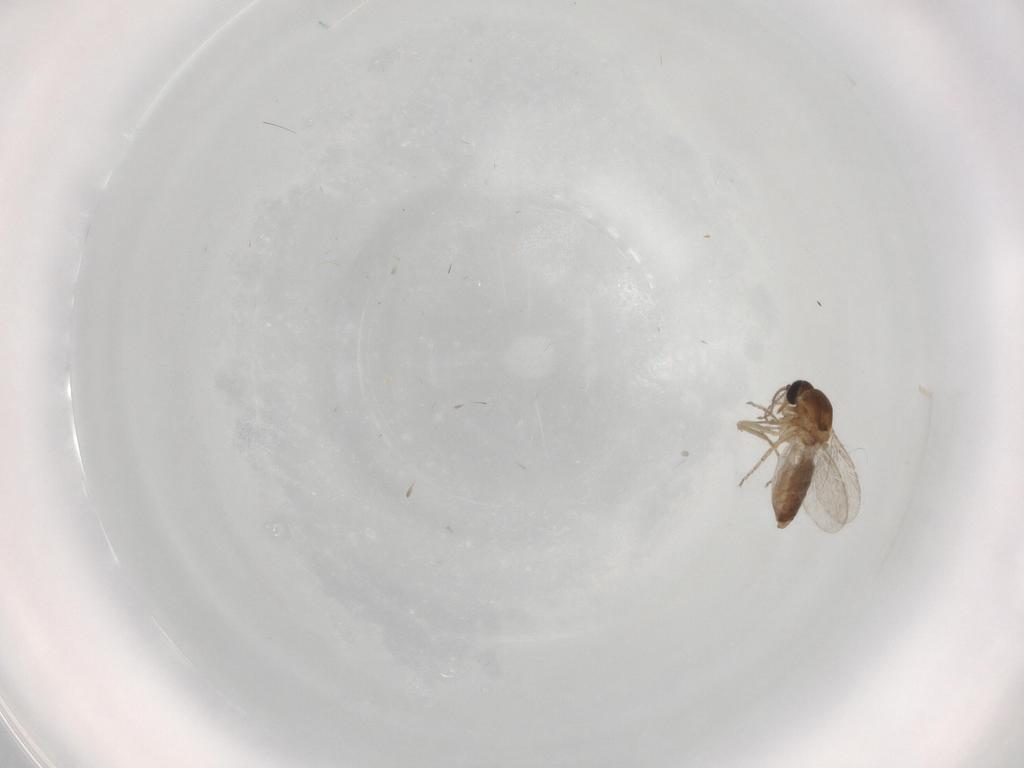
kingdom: Animalia
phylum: Arthropoda
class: Insecta
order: Diptera
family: Ceratopogonidae
